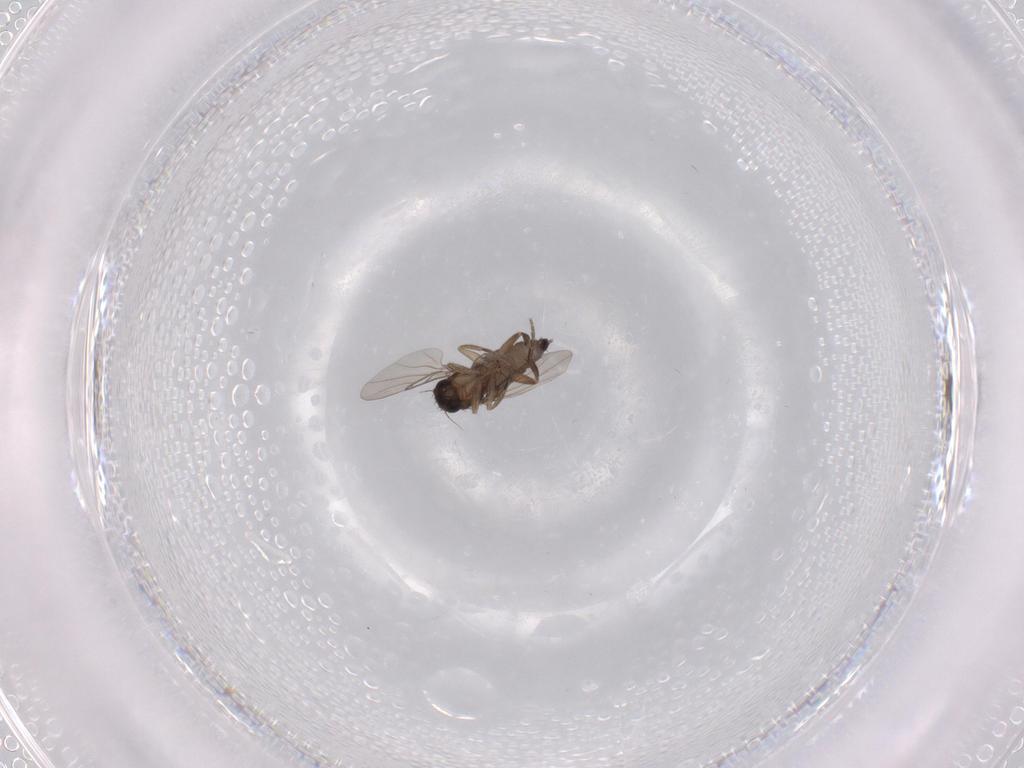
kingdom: Animalia
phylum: Arthropoda
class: Insecta
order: Diptera
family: Phoridae
